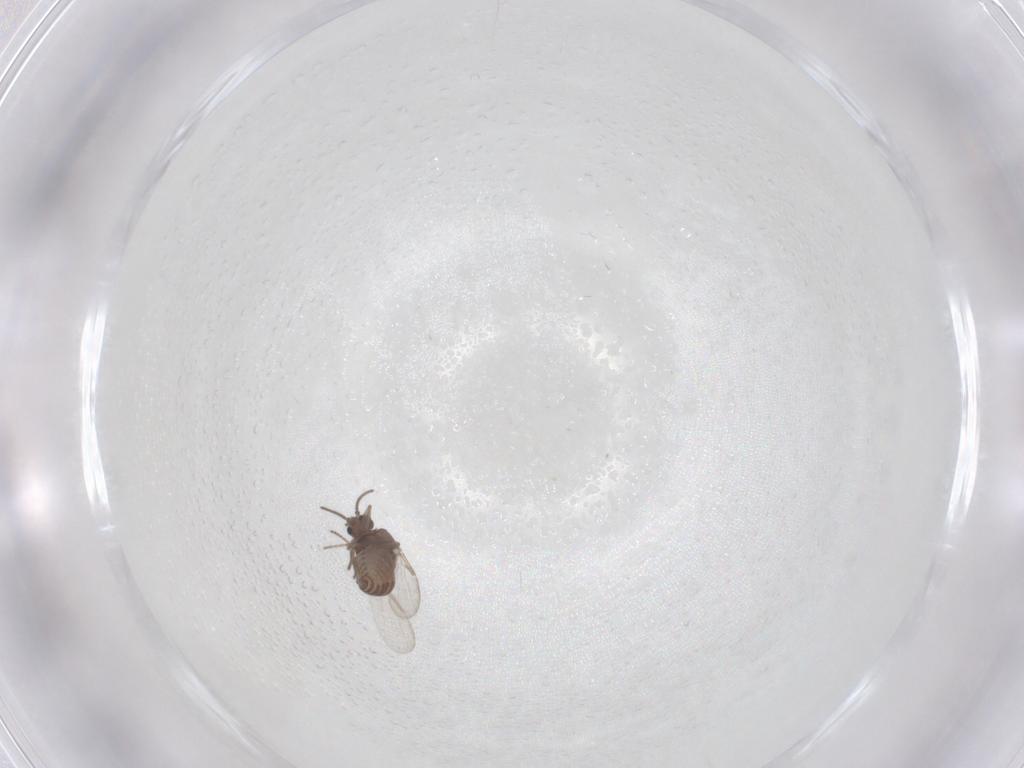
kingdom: Animalia
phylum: Arthropoda
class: Insecta
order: Diptera
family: Ceratopogonidae
